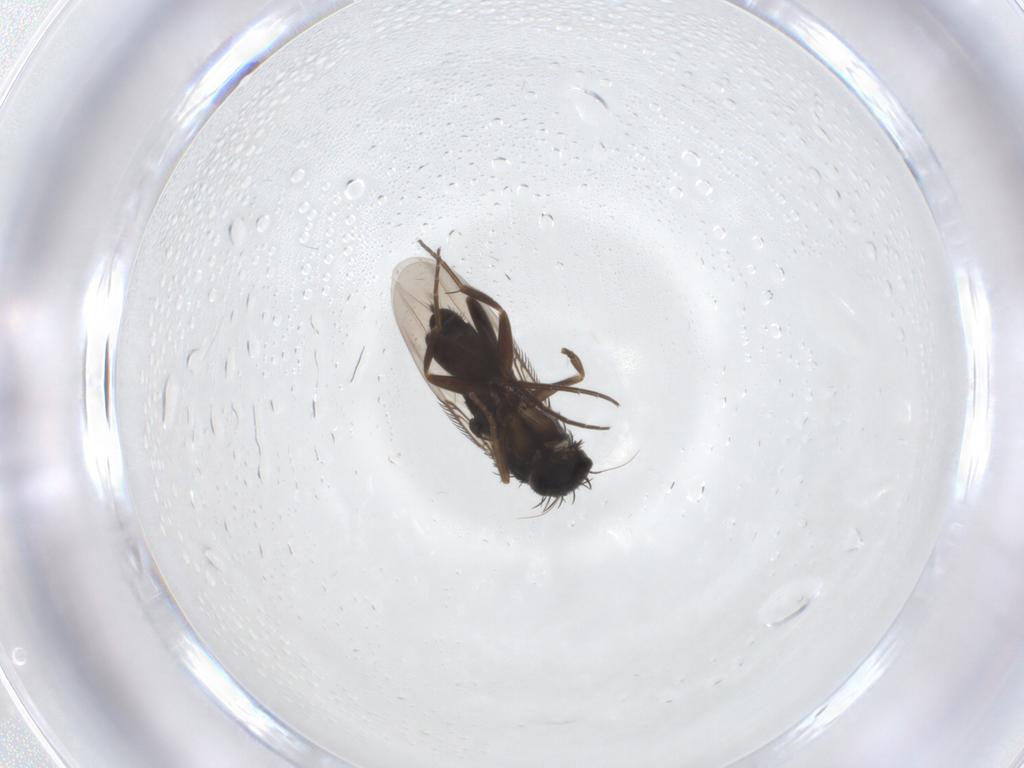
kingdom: Animalia
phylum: Arthropoda
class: Insecta
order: Diptera
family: Phoridae
